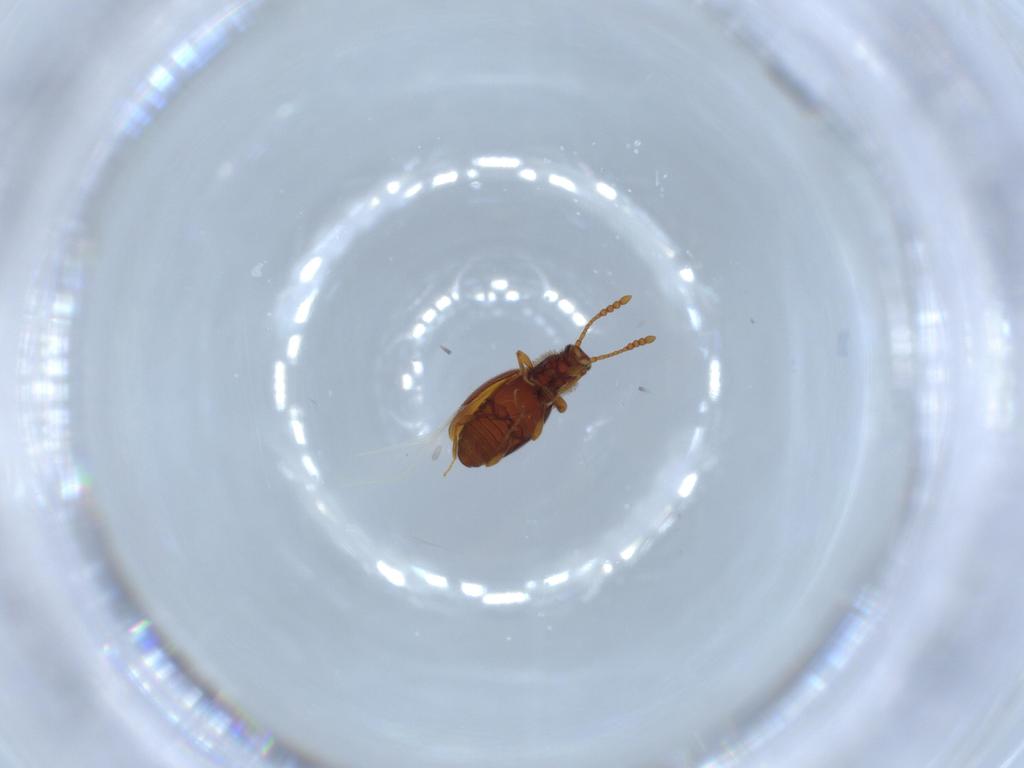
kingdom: Animalia
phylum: Arthropoda
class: Insecta
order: Coleoptera
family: Staphylinidae
